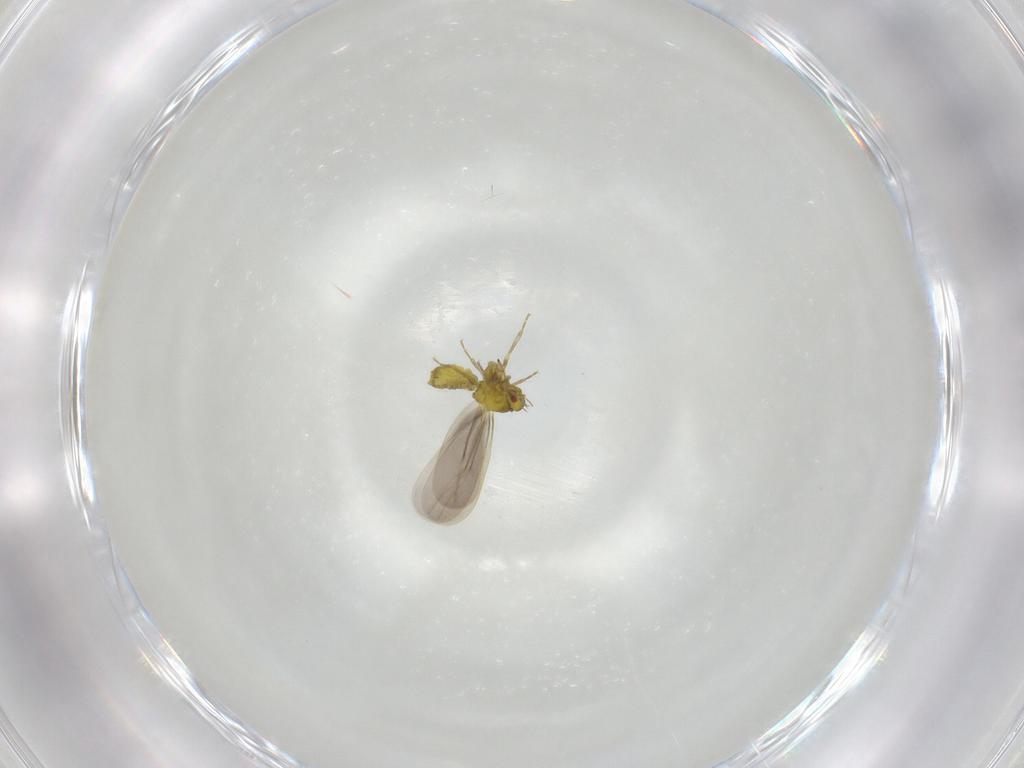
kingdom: Animalia
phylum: Arthropoda
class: Insecta
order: Hemiptera
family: Aleyrodidae
